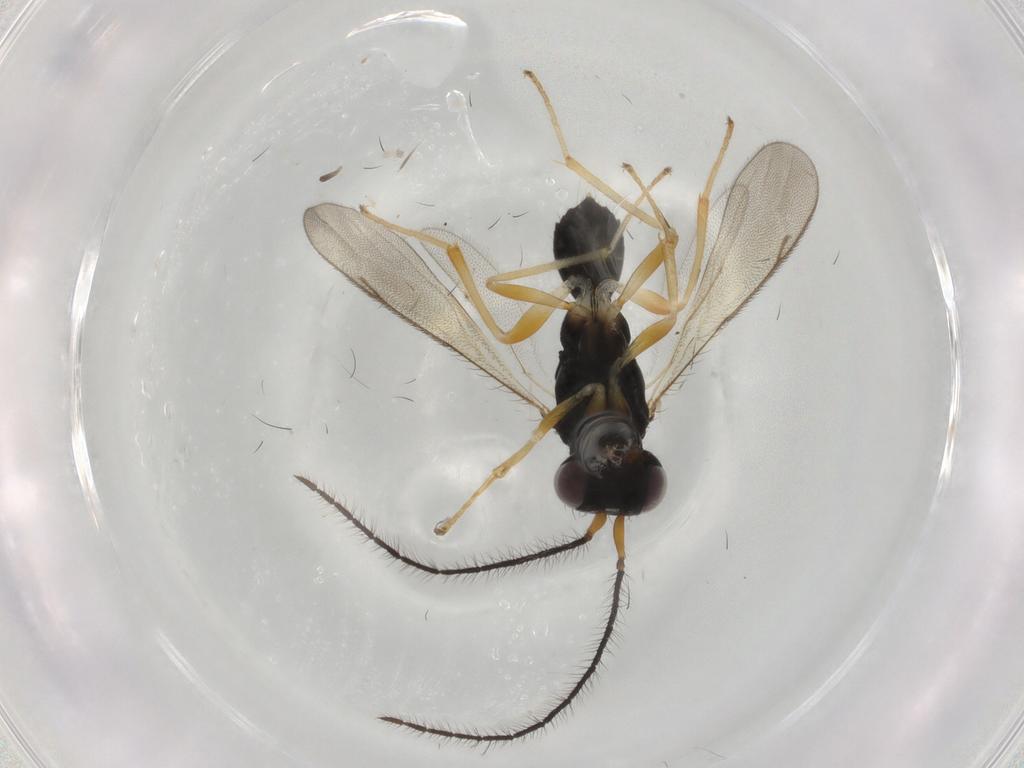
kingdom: Animalia
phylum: Arthropoda
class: Insecta
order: Hymenoptera
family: Diparidae
